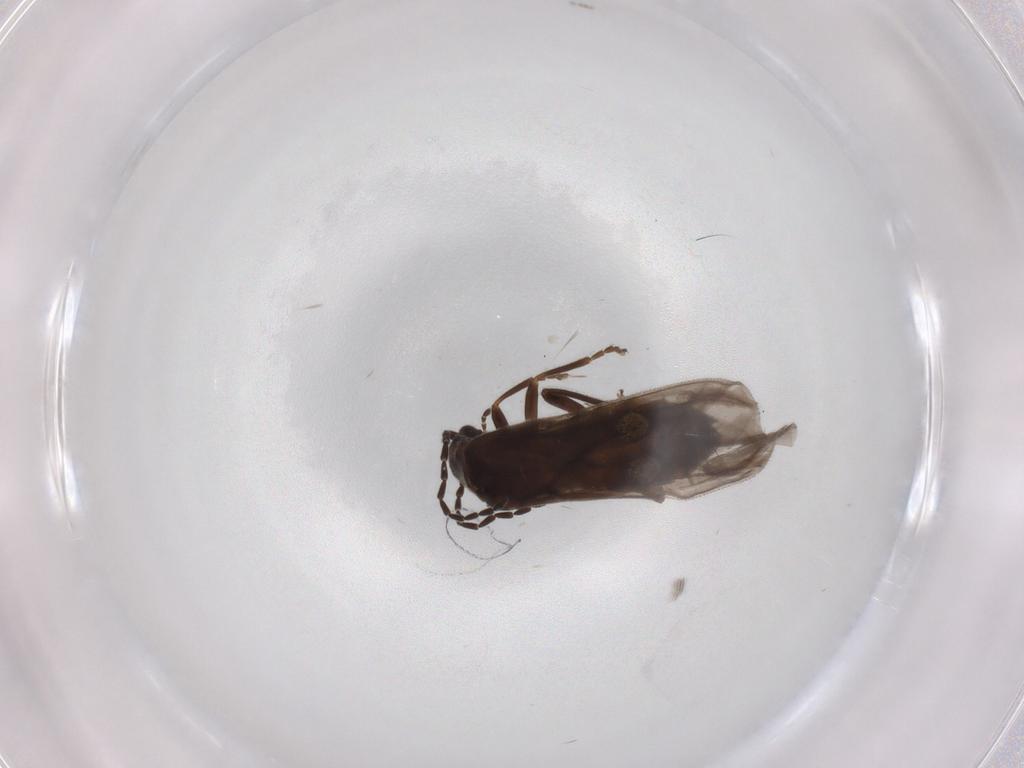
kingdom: Animalia
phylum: Arthropoda
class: Insecta
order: Coleoptera
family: Cantharidae
